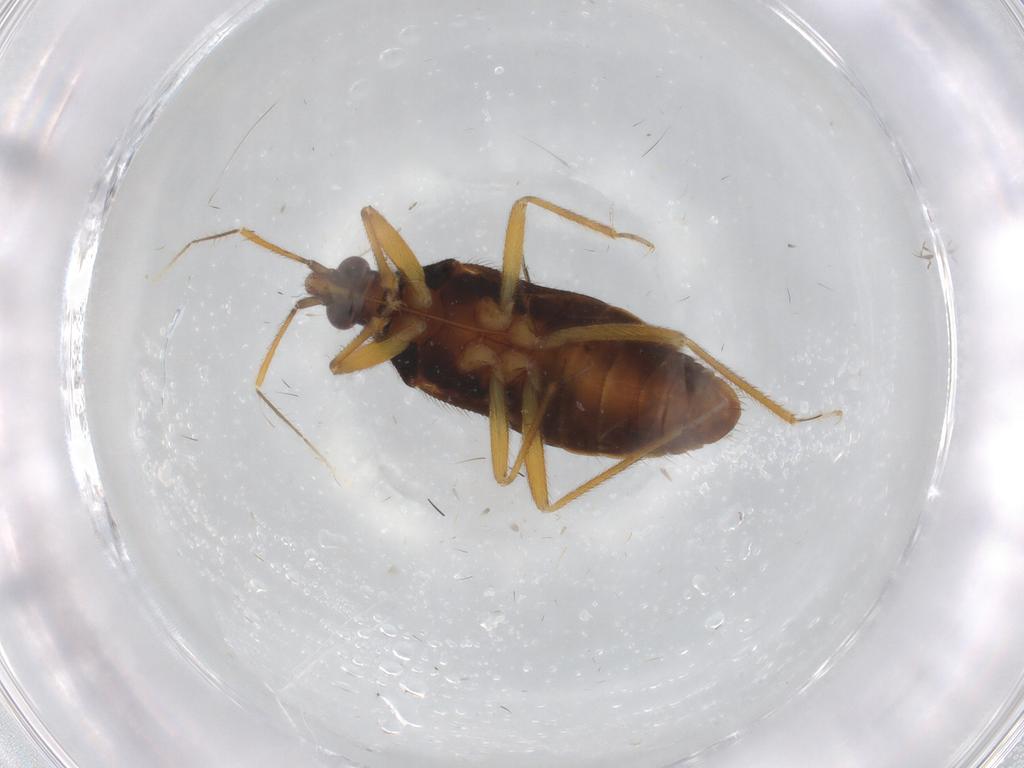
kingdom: Animalia
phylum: Arthropoda
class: Insecta
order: Hemiptera
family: Anthocoridae
